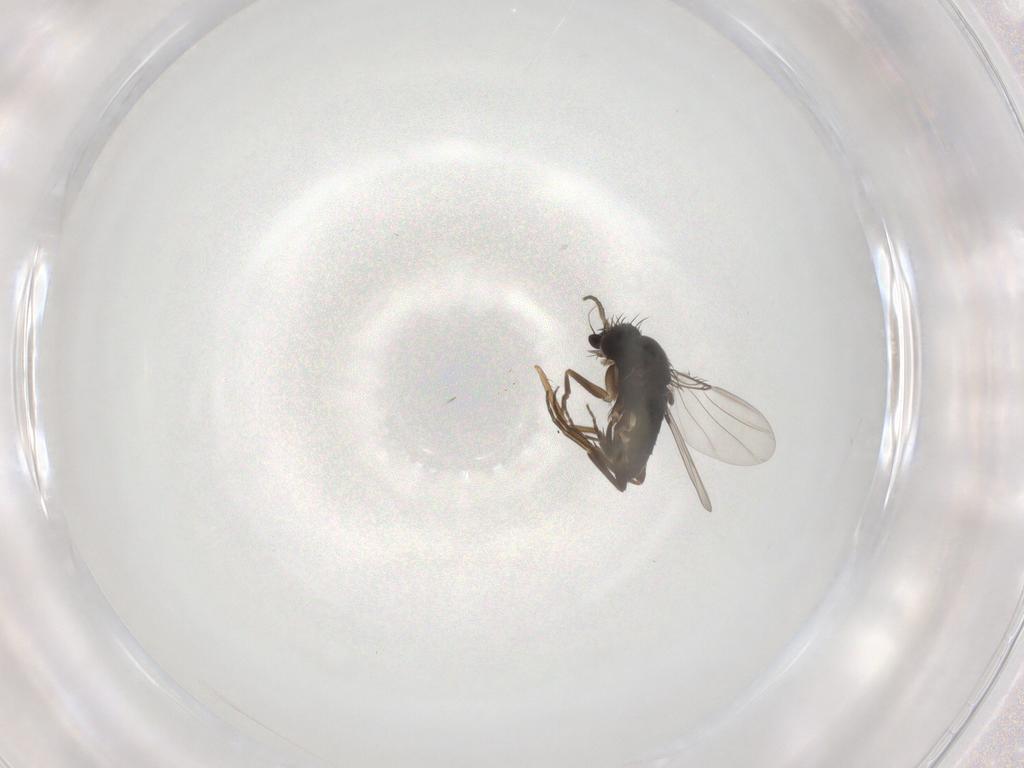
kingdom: Animalia
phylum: Arthropoda
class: Insecta
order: Diptera
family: Phoridae
